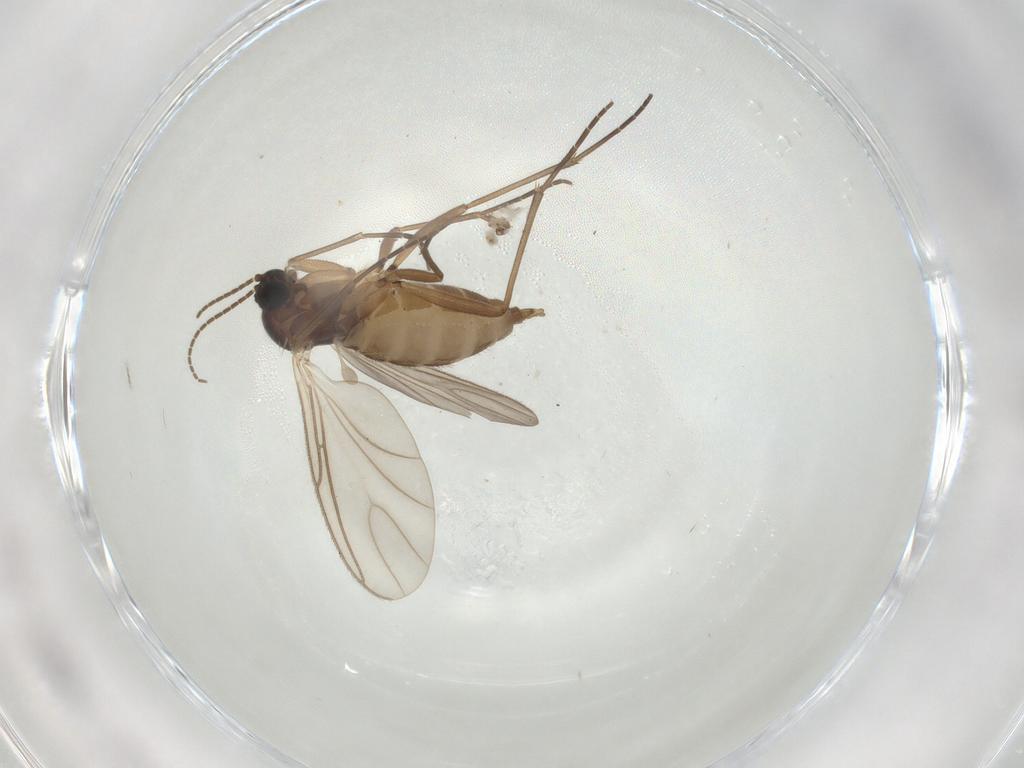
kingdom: Animalia
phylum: Arthropoda
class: Insecta
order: Diptera
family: Sciaridae
